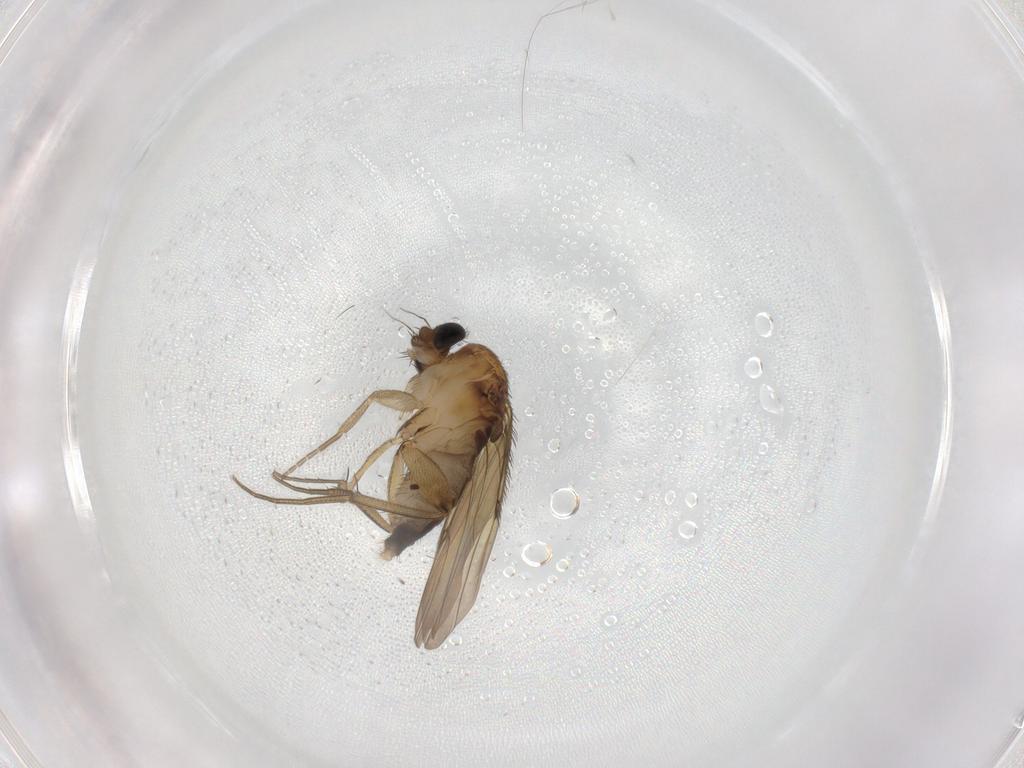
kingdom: Animalia
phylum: Arthropoda
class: Insecta
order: Diptera
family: Phoridae
